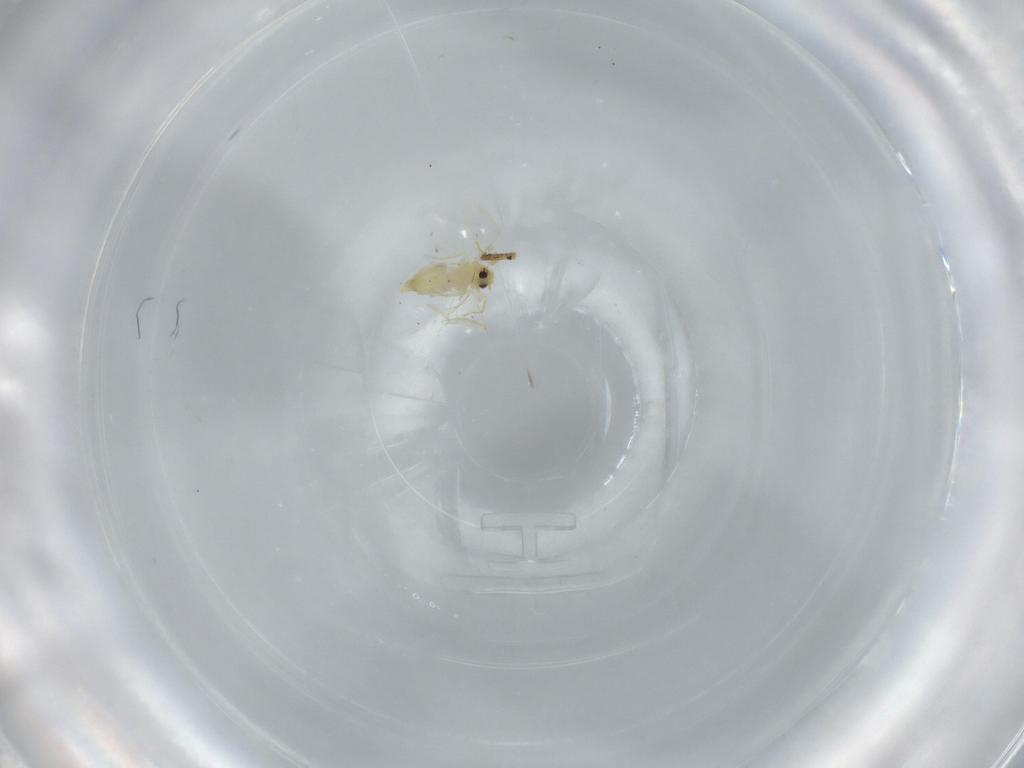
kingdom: Animalia
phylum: Arthropoda
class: Insecta
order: Hemiptera
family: Aleyrodidae
